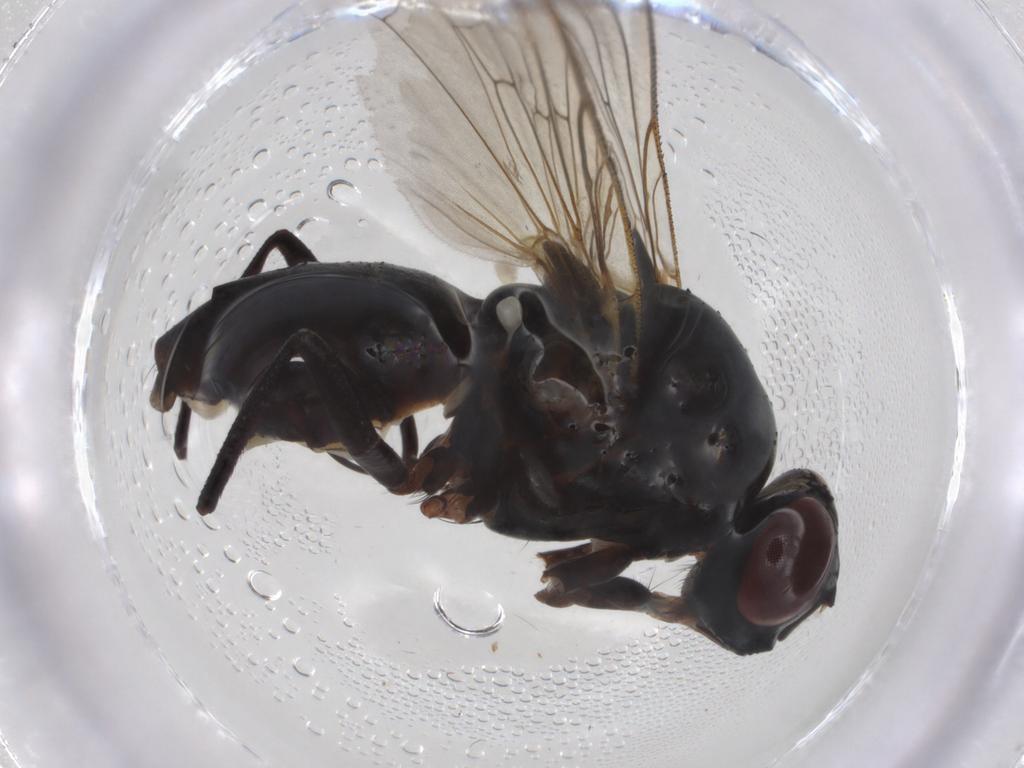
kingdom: Animalia
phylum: Arthropoda
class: Insecta
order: Diptera
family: Anthomyiidae
